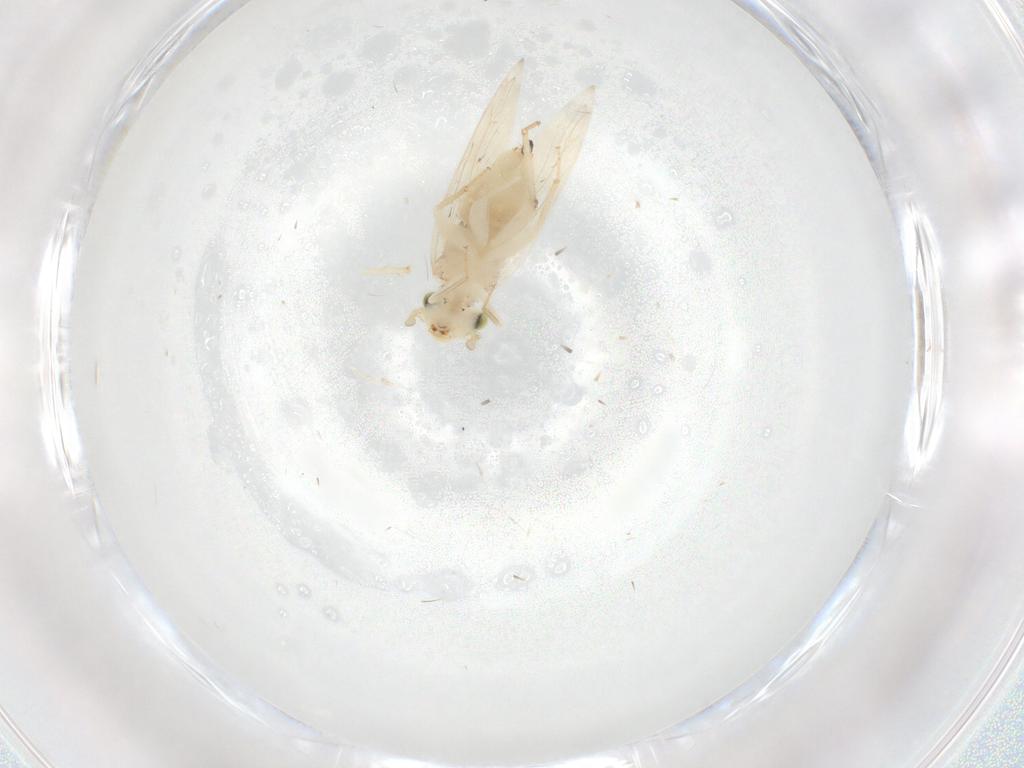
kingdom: Animalia
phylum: Arthropoda
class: Insecta
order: Psocodea
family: Lepidopsocidae
